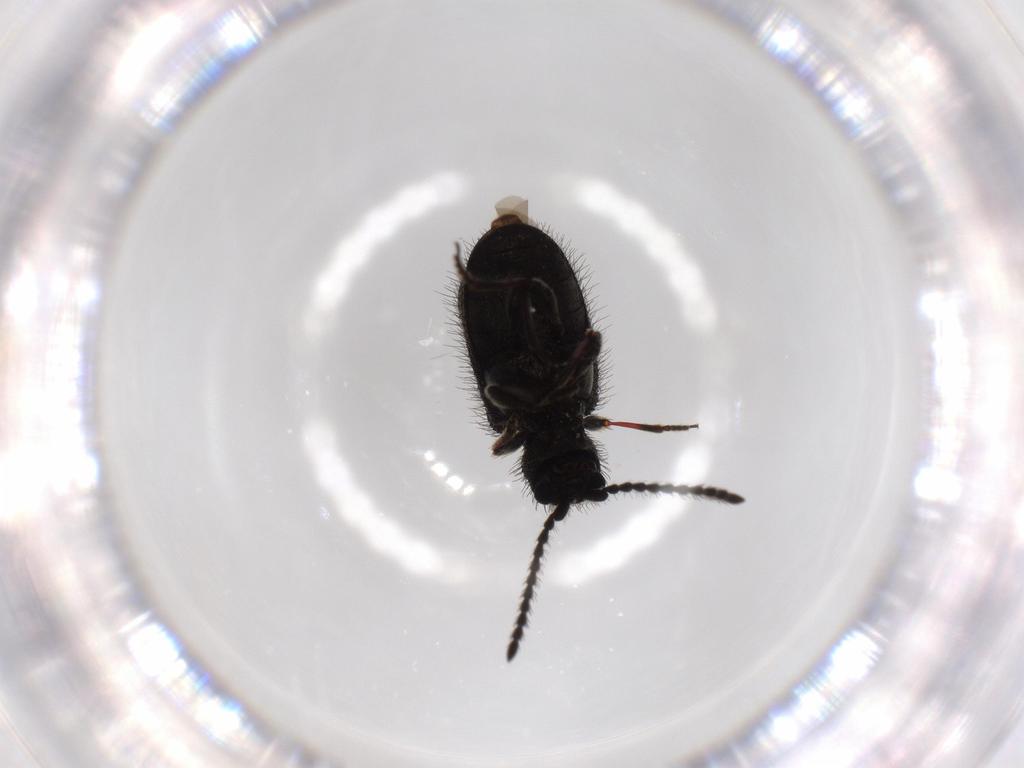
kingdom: Animalia
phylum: Arthropoda
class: Insecta
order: Coleoptera
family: Ptinidae
